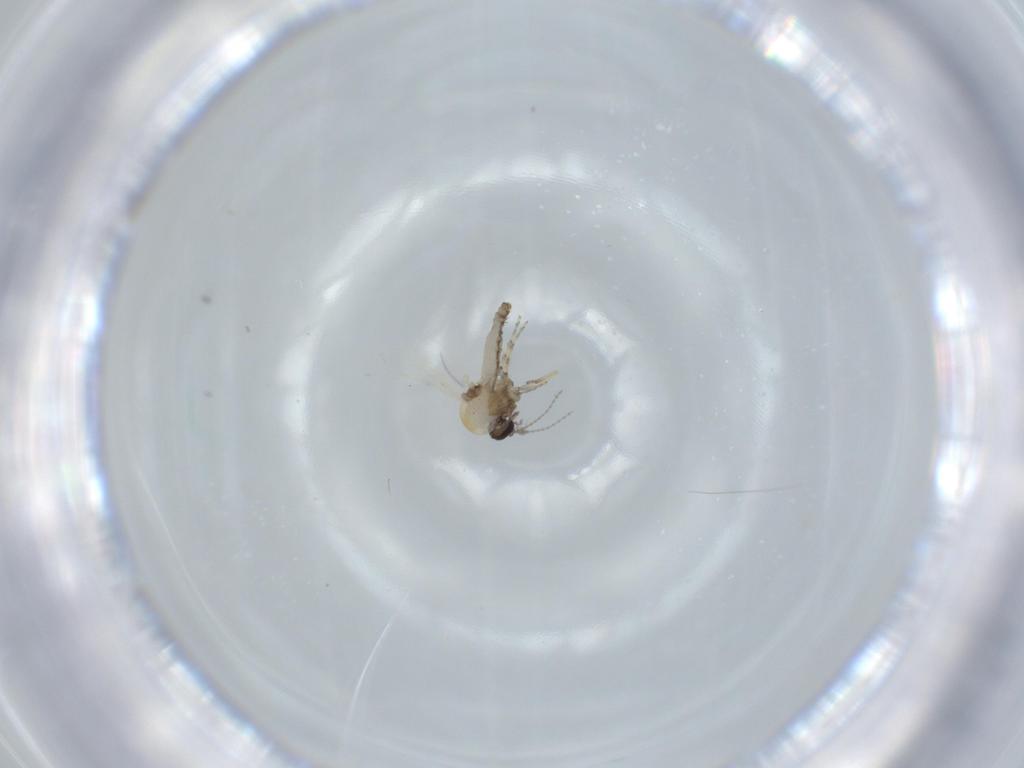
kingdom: Animalia
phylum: Arthropoda
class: Insecta
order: Diptera
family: Ceratopogonidae
